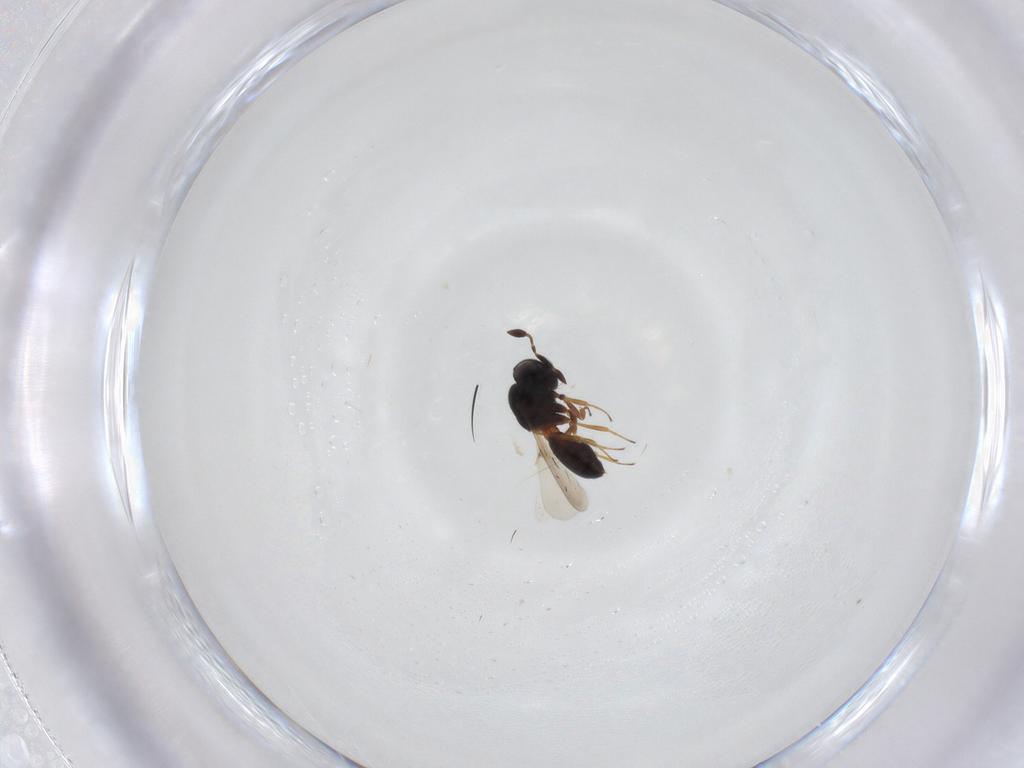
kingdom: Animalia
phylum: Arthropoda
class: Insecta
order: Hymenoptera
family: Scelionidae
